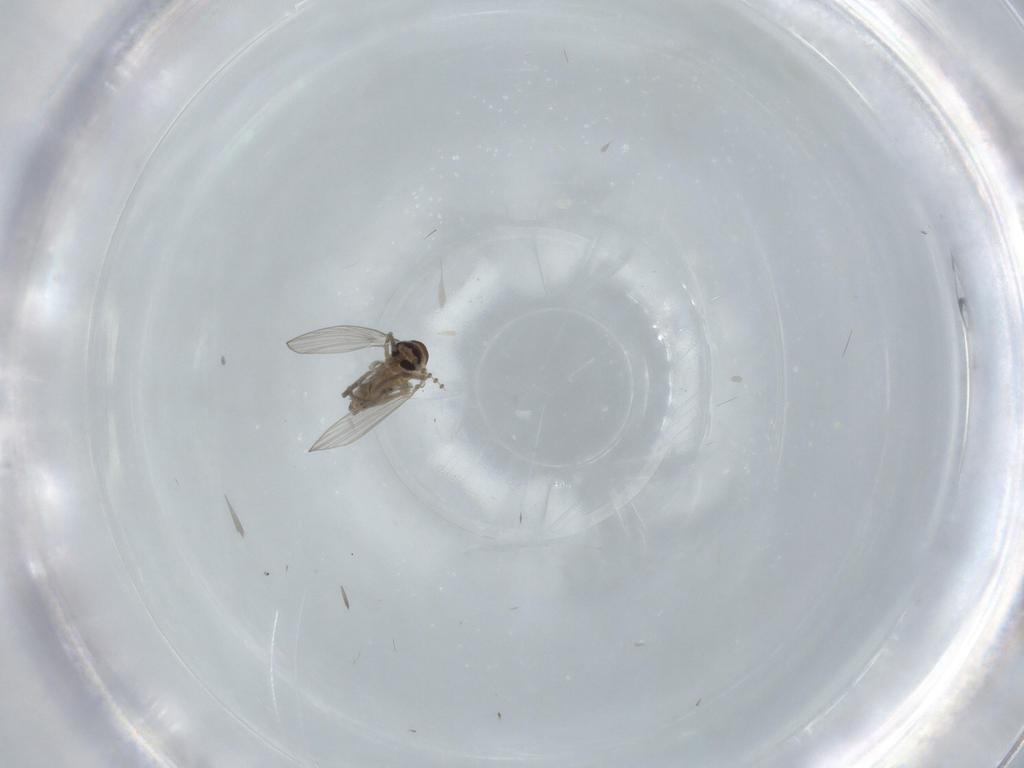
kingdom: Animalia
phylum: Arthropoda
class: Insecta
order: Diptera
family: Psychodidae
